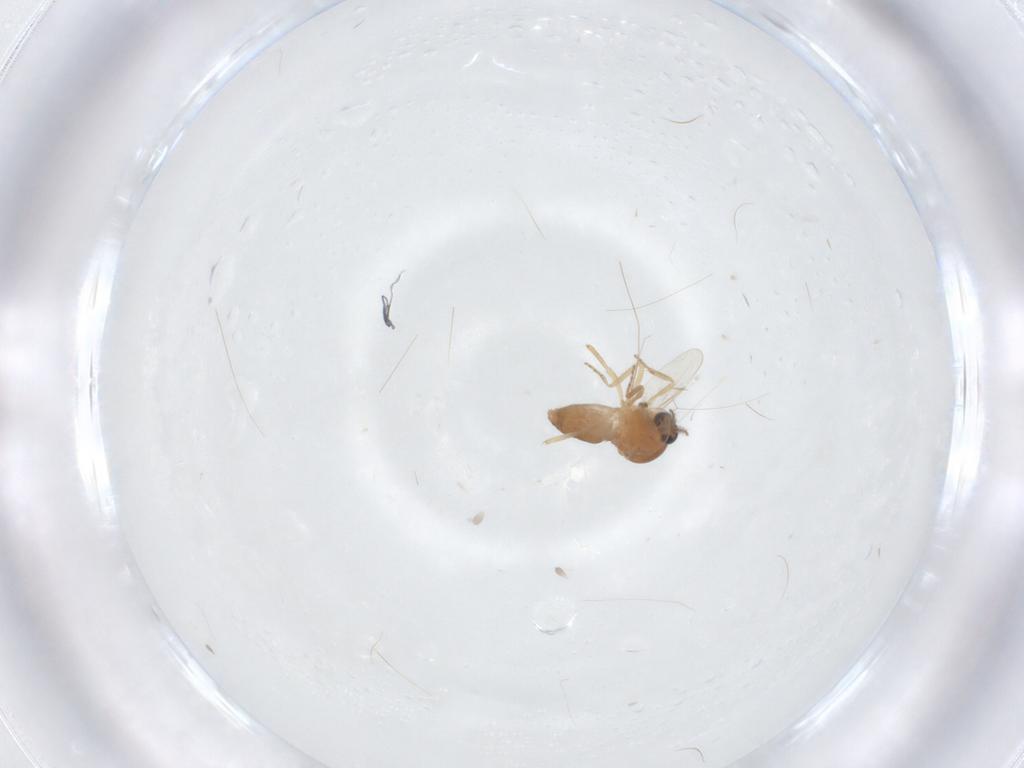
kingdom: Animalia
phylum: Arthropoda
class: Insecta
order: Diptera
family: Ceratopogonidae
